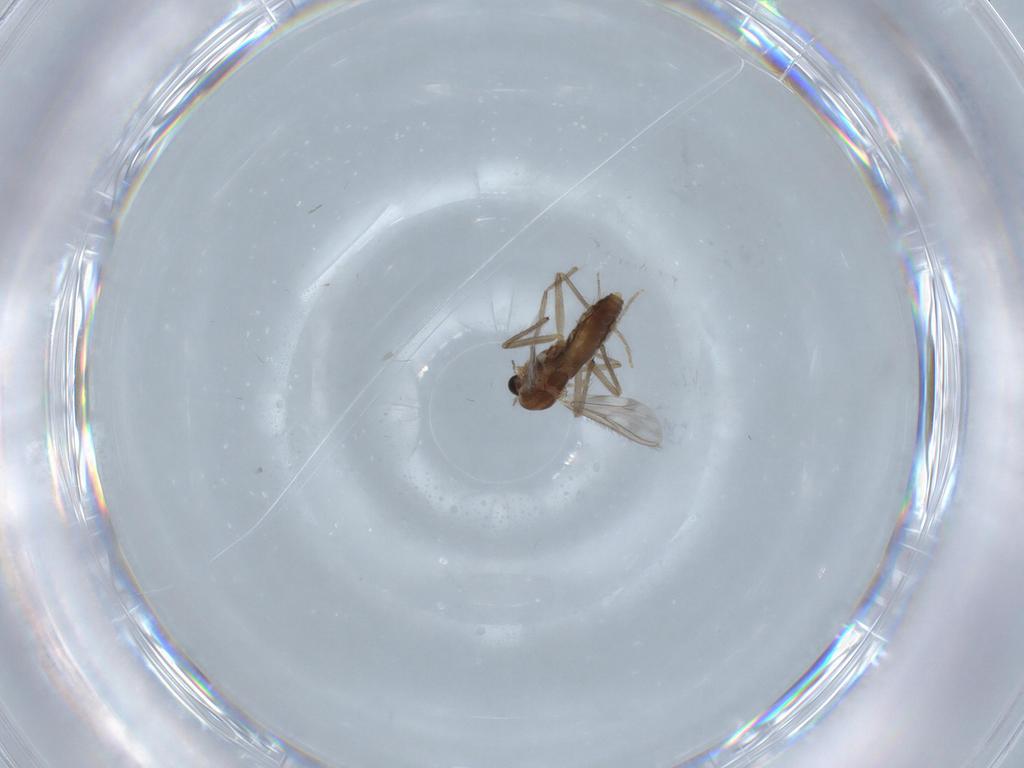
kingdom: Animalia
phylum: Arthropoda
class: Insecta
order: Diptera
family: Chironomidae
